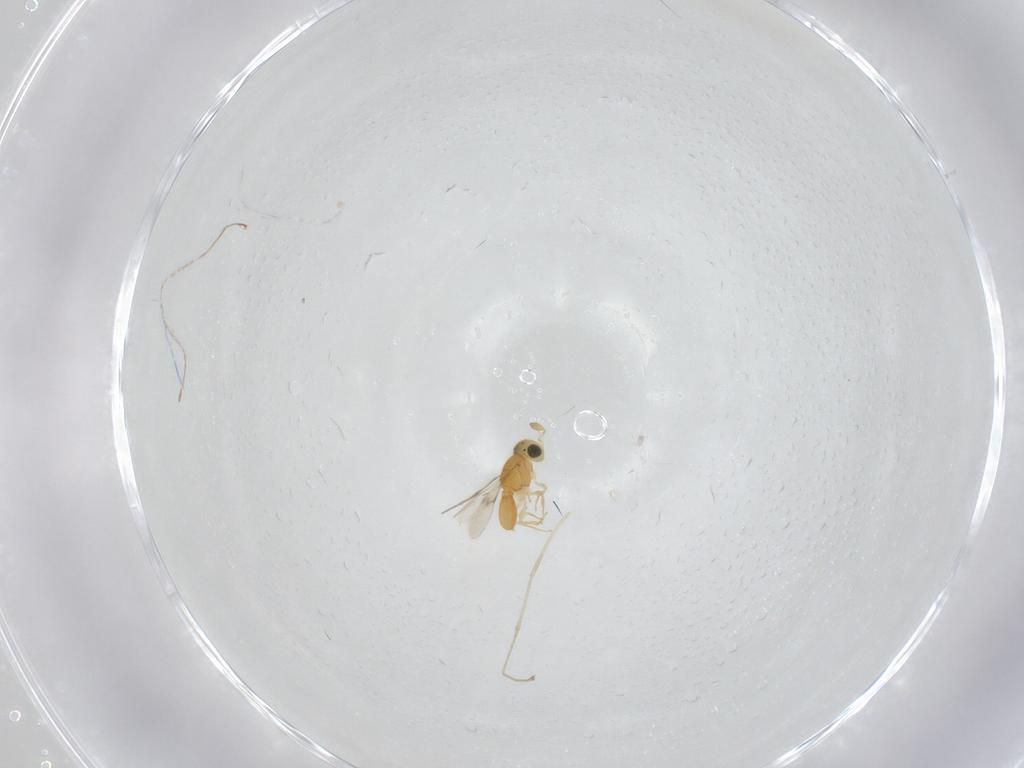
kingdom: Animalia
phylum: Arthropoda
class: Insecta
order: Hymenoptera
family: Scelionidae
